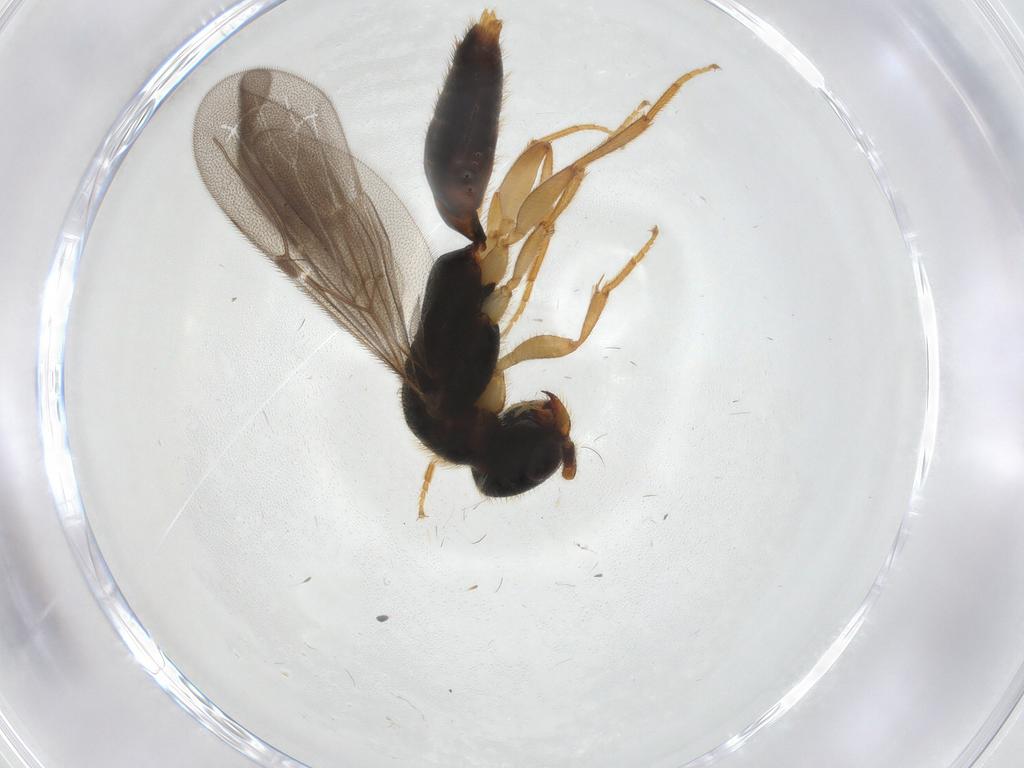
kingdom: Animalia
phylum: Arthropoda
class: Insecta
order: Hymenoptera
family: Bethylidae
